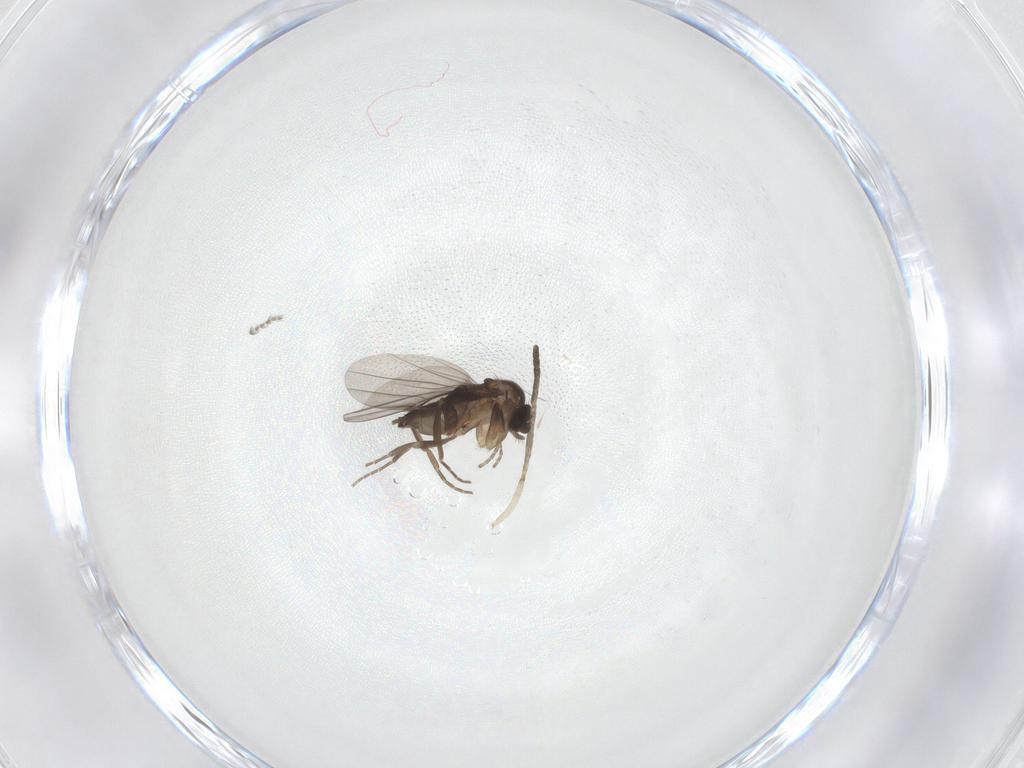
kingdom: Animalia
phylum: Arthropoda
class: Insecta
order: Diptera
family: Phoridae
